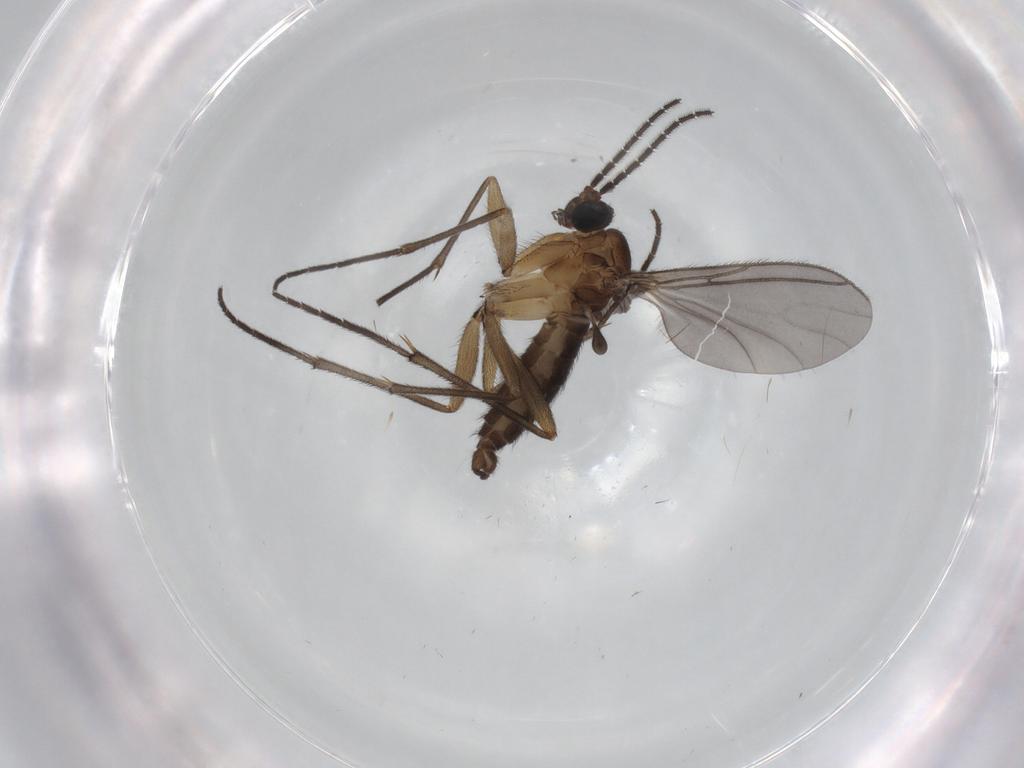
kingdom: Animalia
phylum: Arthropoda
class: Insecta
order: Diptera
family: Sciaridae
